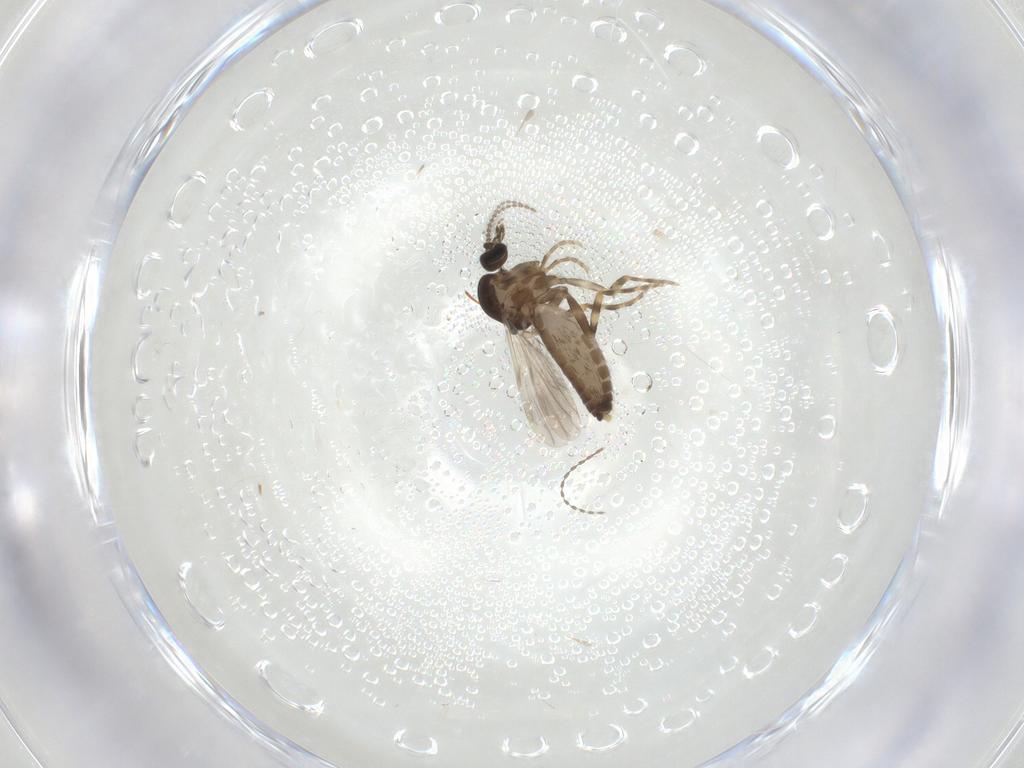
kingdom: Animalia
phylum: Arthropoda
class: Insecta
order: Diptera
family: Ceratopogonidae
